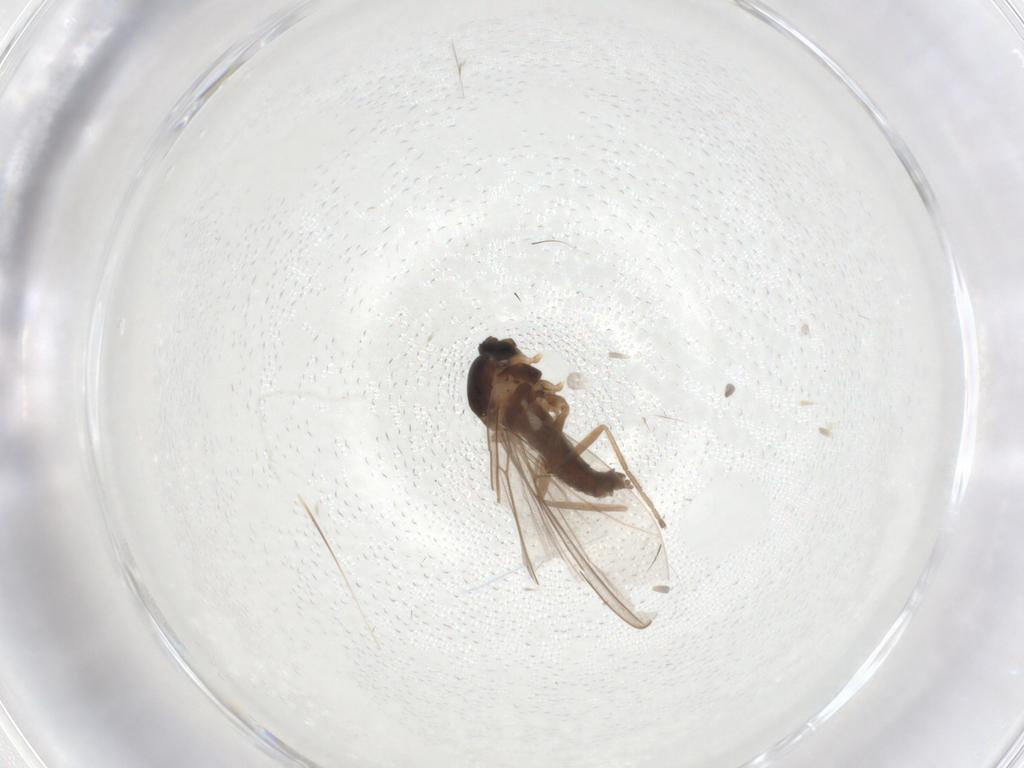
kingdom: Animalia
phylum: Arthropoda
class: Insecta
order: Diptera
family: Cecidomyiidae
